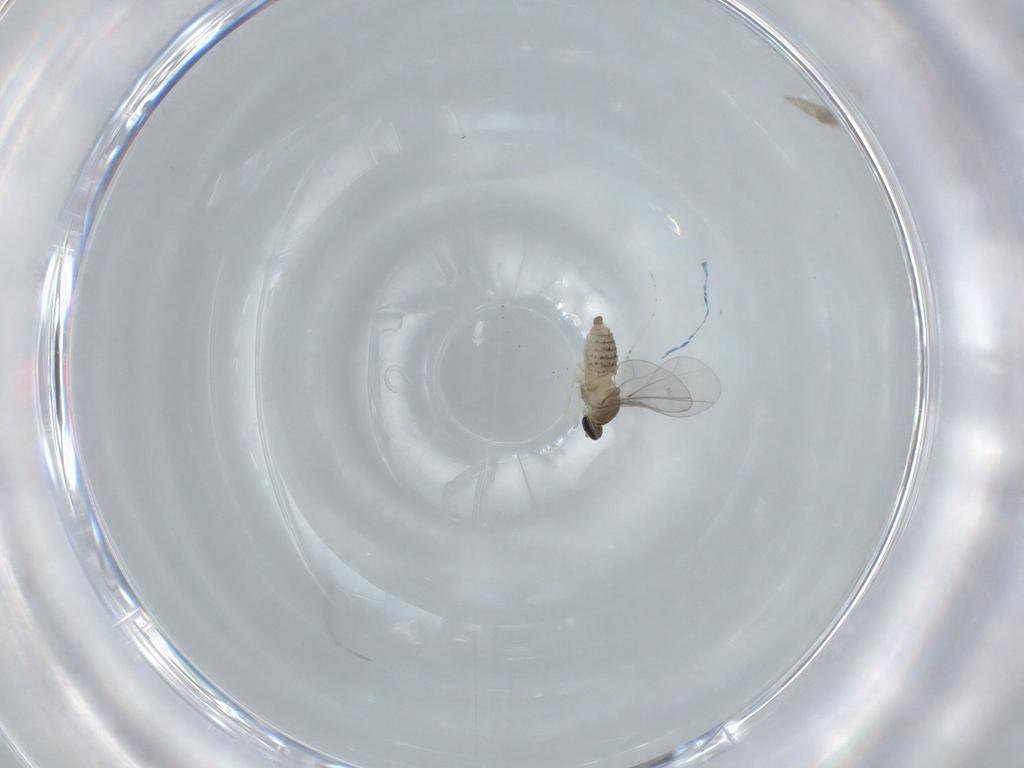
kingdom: Animalia
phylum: Arthropoda
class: Insecta
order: Diptera
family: Cecidomyiidae
